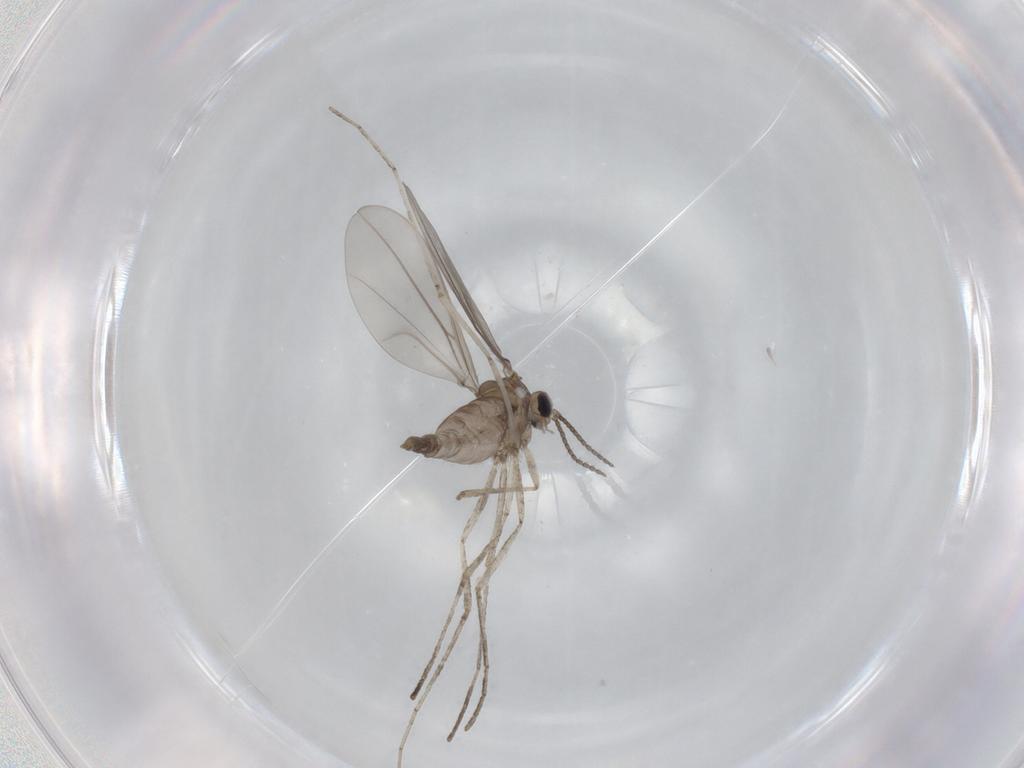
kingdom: Animalia
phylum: Arthropoda
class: Insecta
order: Diptera
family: Cecidomyiidae
